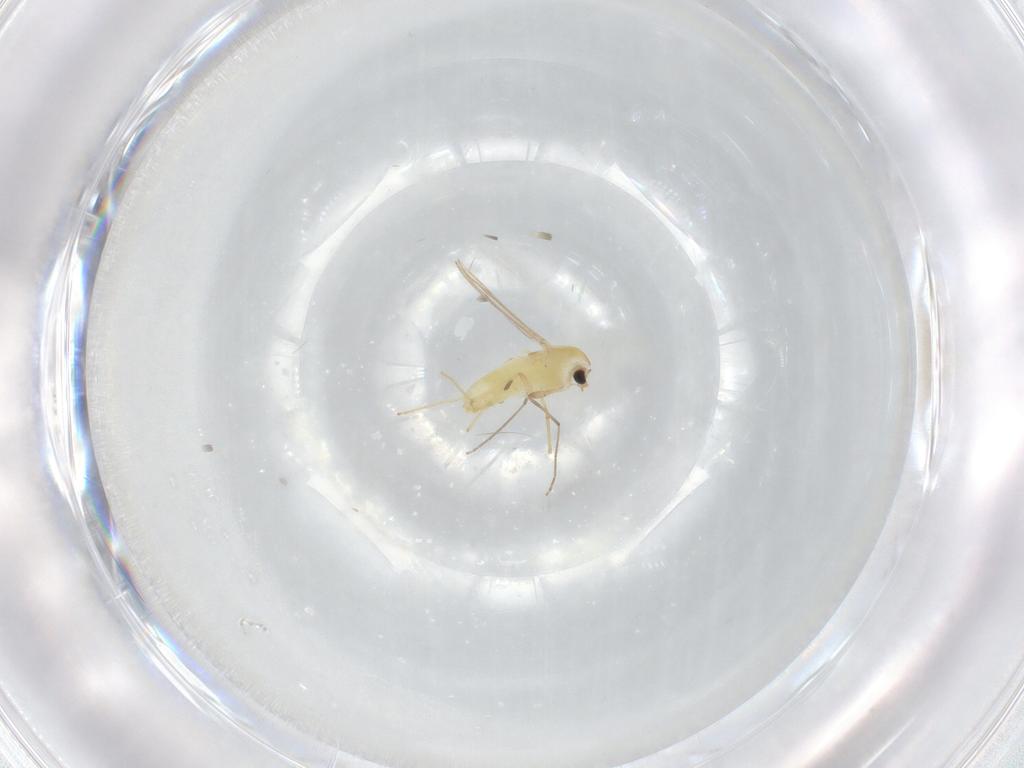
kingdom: Animalia
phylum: Arthropoda
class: Insecta
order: Diptera
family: Chironomidae
